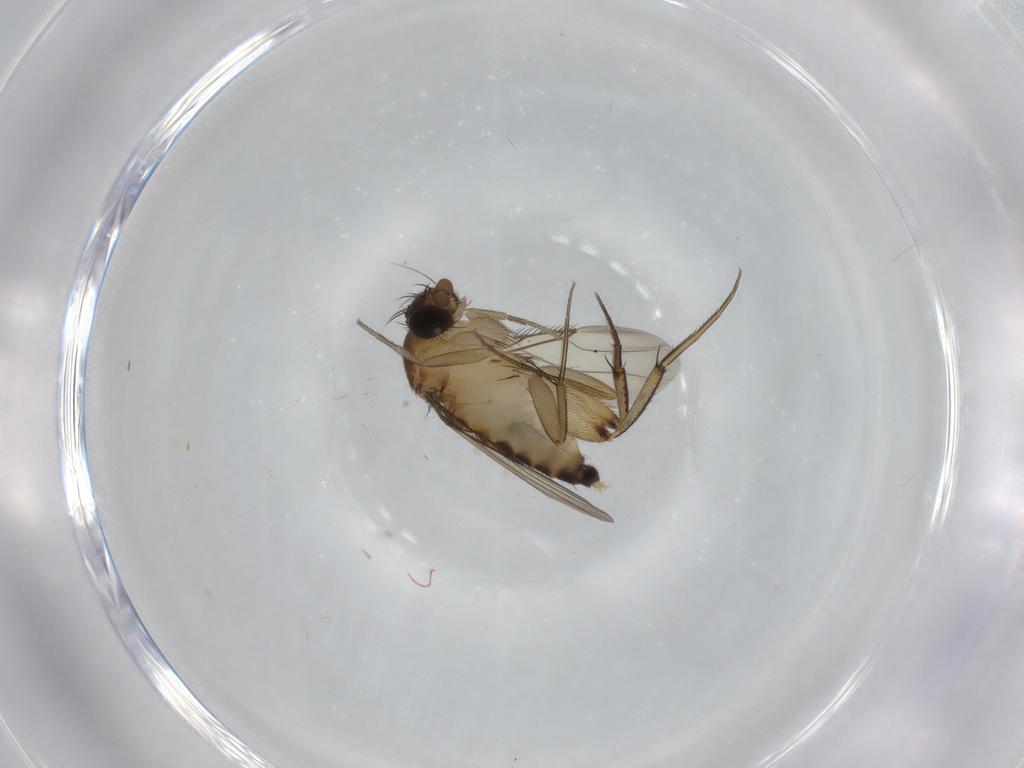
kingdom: Animalia
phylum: Arthropoda
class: Insecta
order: Diptera
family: Phoridae
